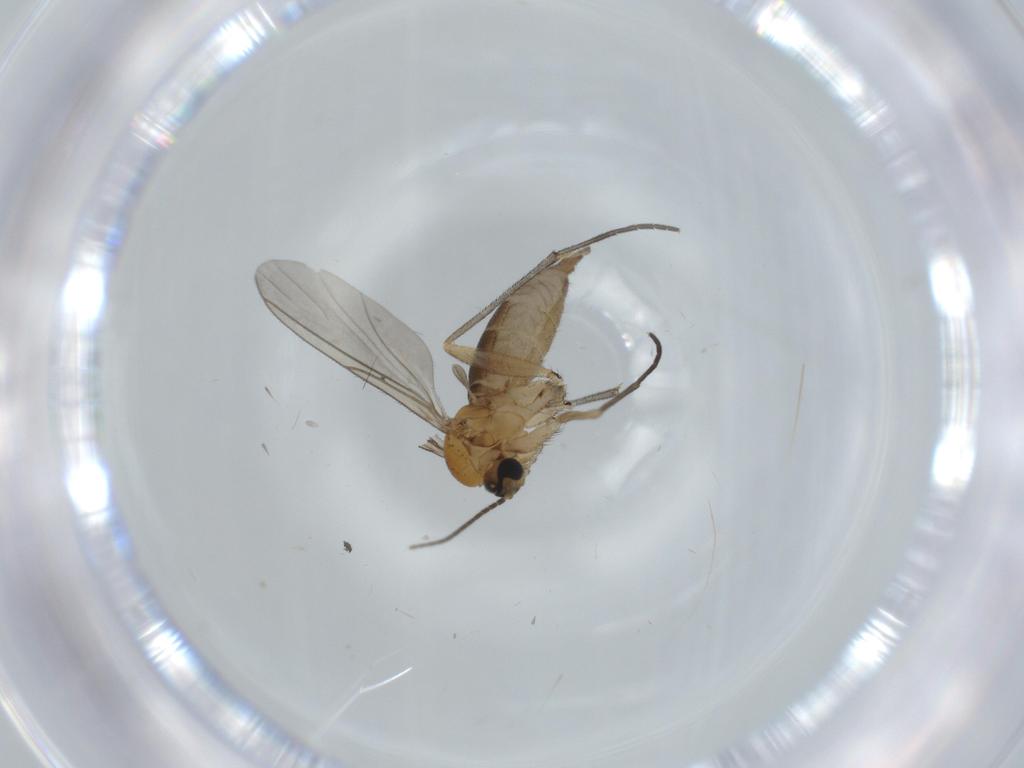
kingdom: Animalia
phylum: Arthropoda
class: Insecta
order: Diptera
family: Sciaridae
